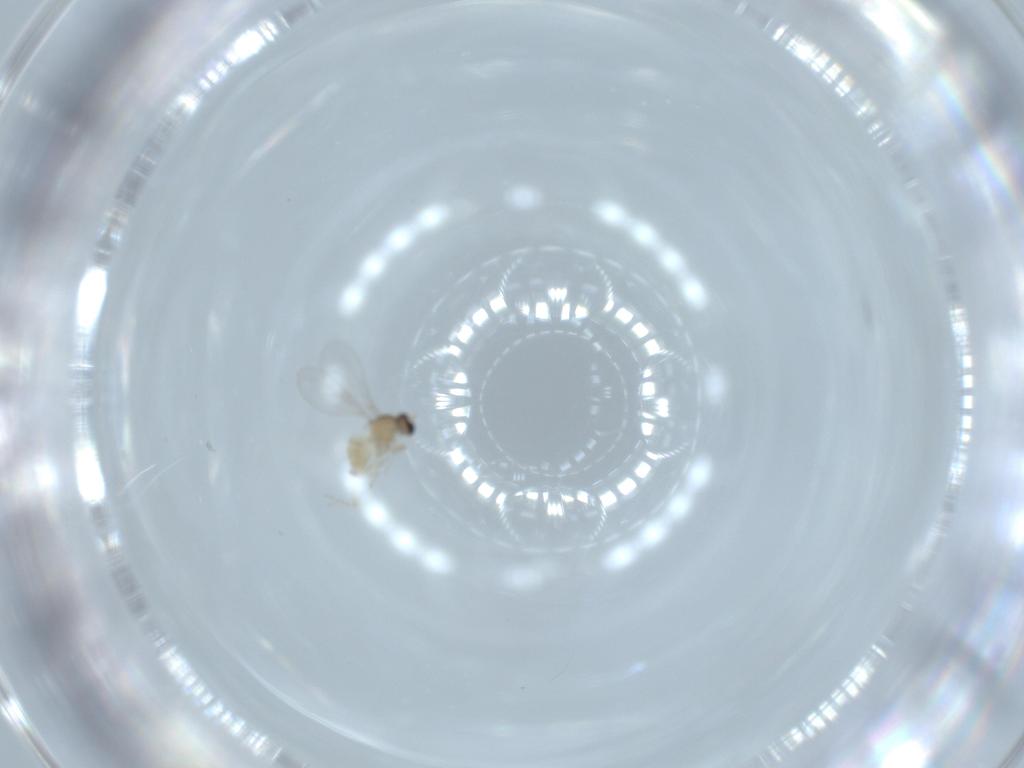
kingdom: Animalia
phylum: Arthropoda
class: Insecta
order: Diptera
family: Cecidomyiidae
